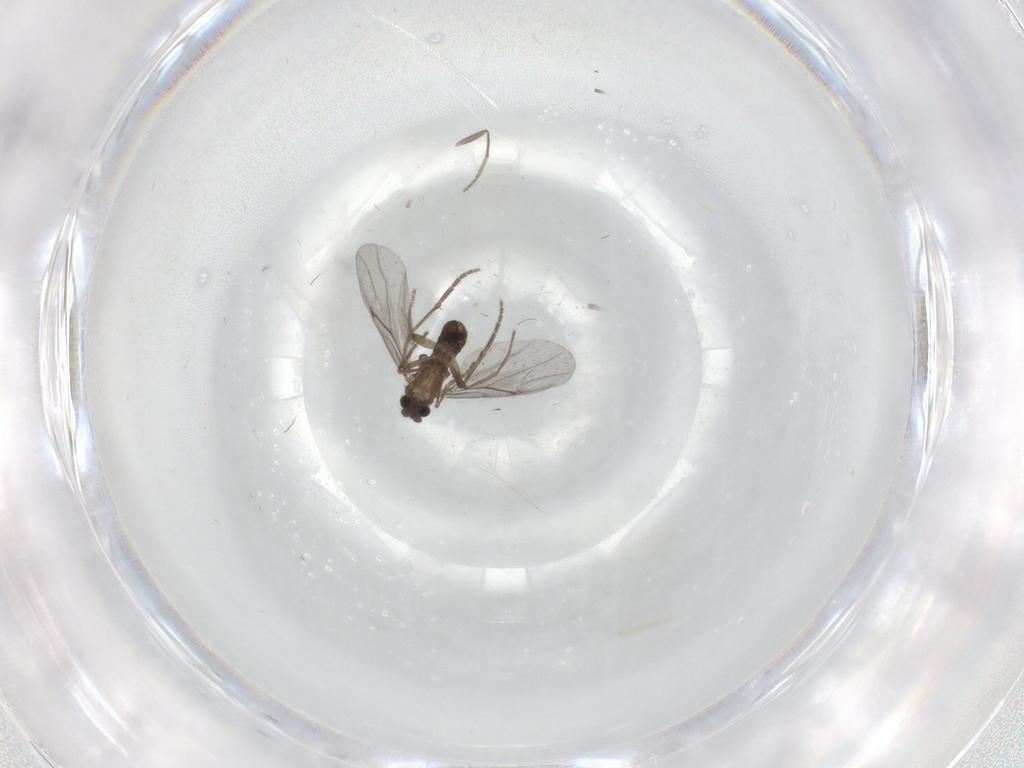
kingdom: Animalia
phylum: Arthropoda
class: Insecta
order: Diptera
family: Phoridae
